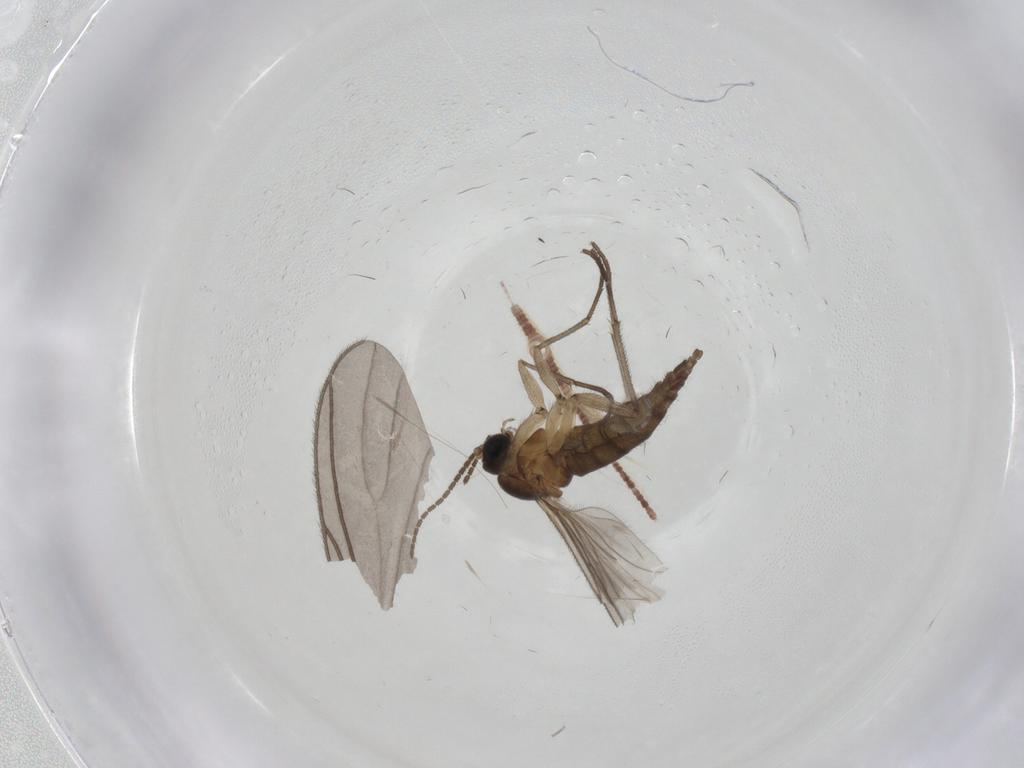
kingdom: Animalia
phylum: Arthropoda
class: Insecta
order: Diptera
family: Sciaridae
